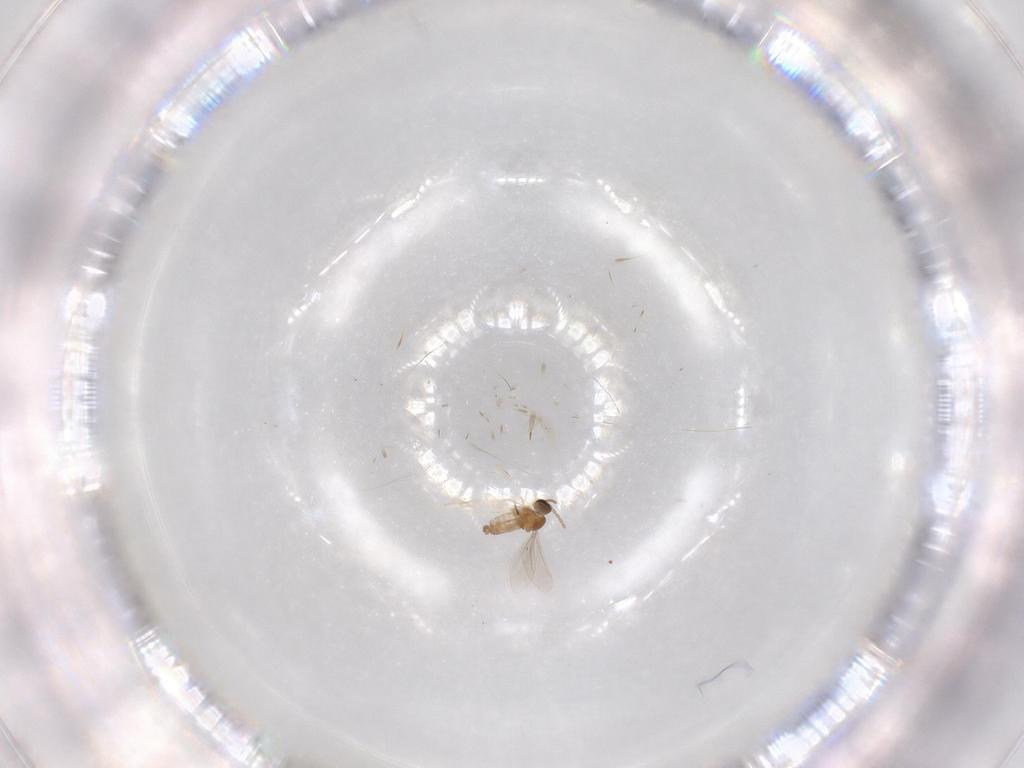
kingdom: Animalia
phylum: Arthropoda
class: Insecta
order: Diptera
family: Cecidomyiidae
